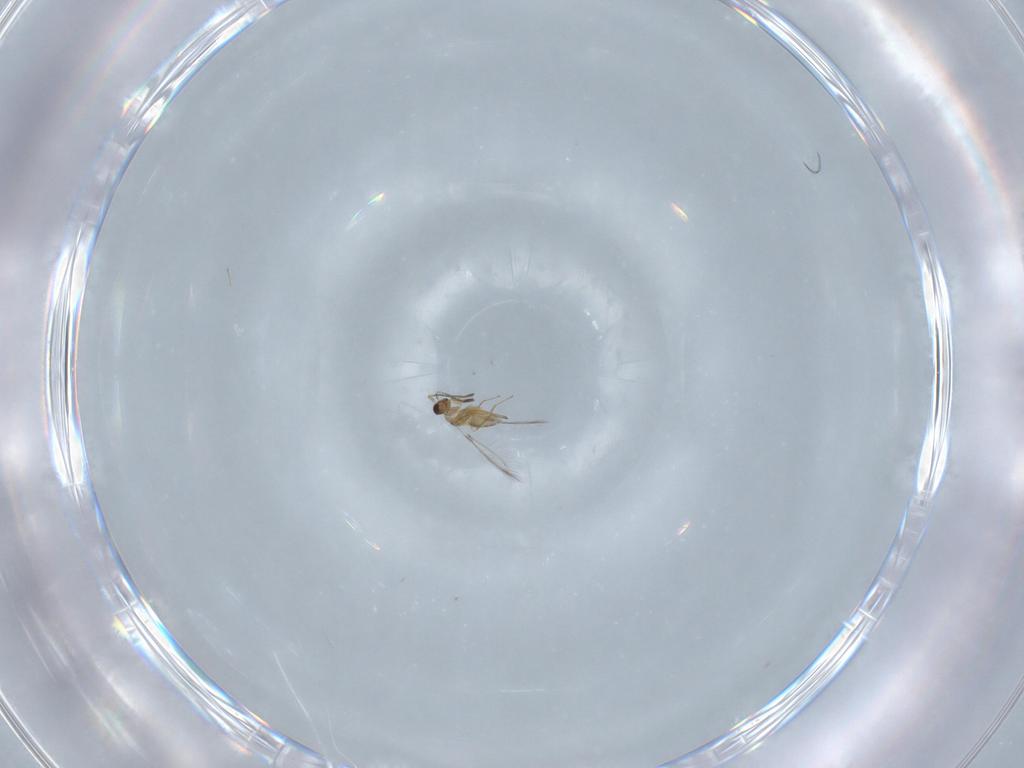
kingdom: Animalia
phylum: Arthropoda
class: Insecta
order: Hymenoptera
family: Mymaridae
